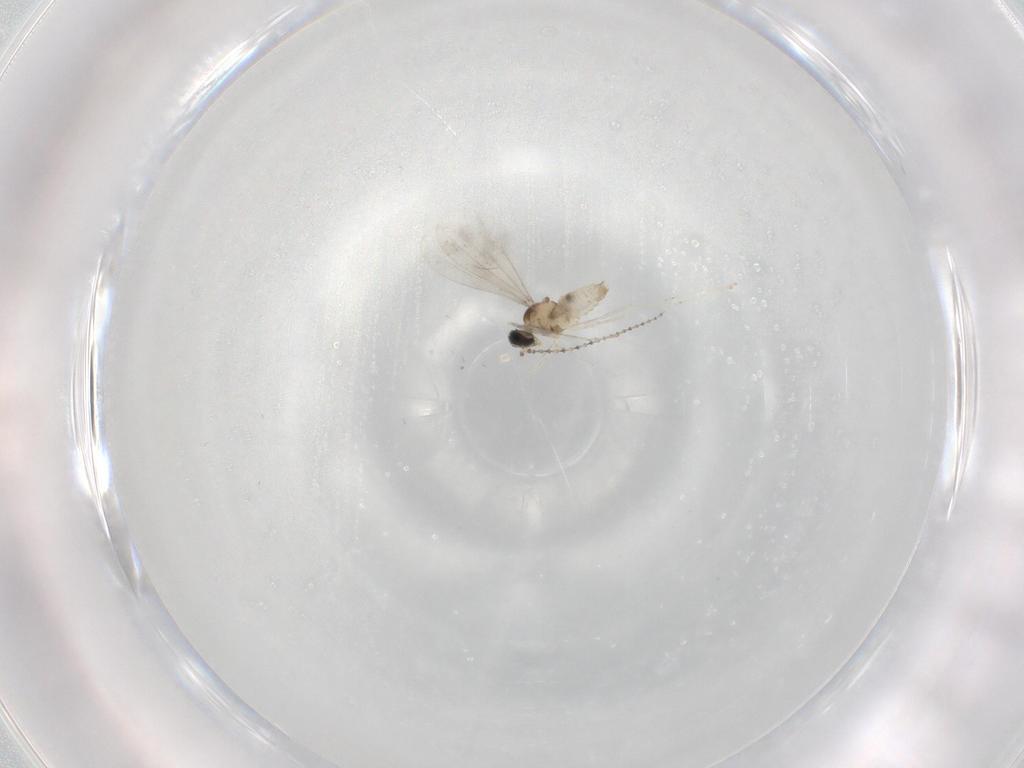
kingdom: Animalia
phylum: Arthropoda
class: Insecta
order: Diptera
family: Cecidomyiidae
